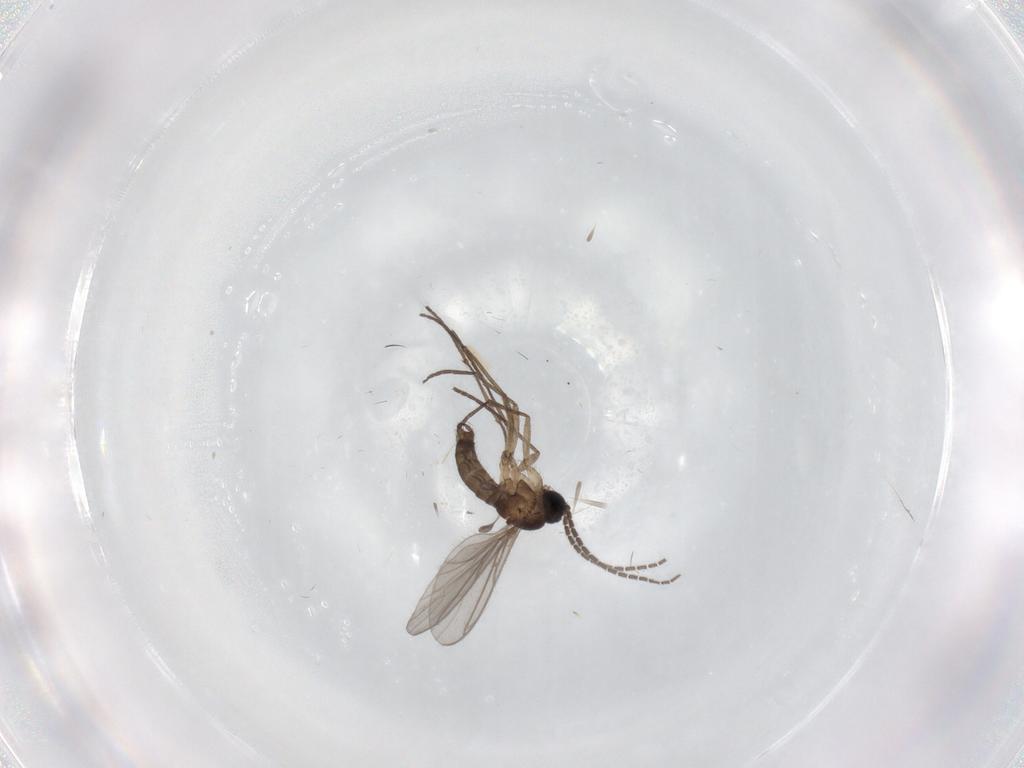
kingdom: Animalia
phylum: Arthropoda
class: Insecta
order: Diptera
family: Sciaridae
